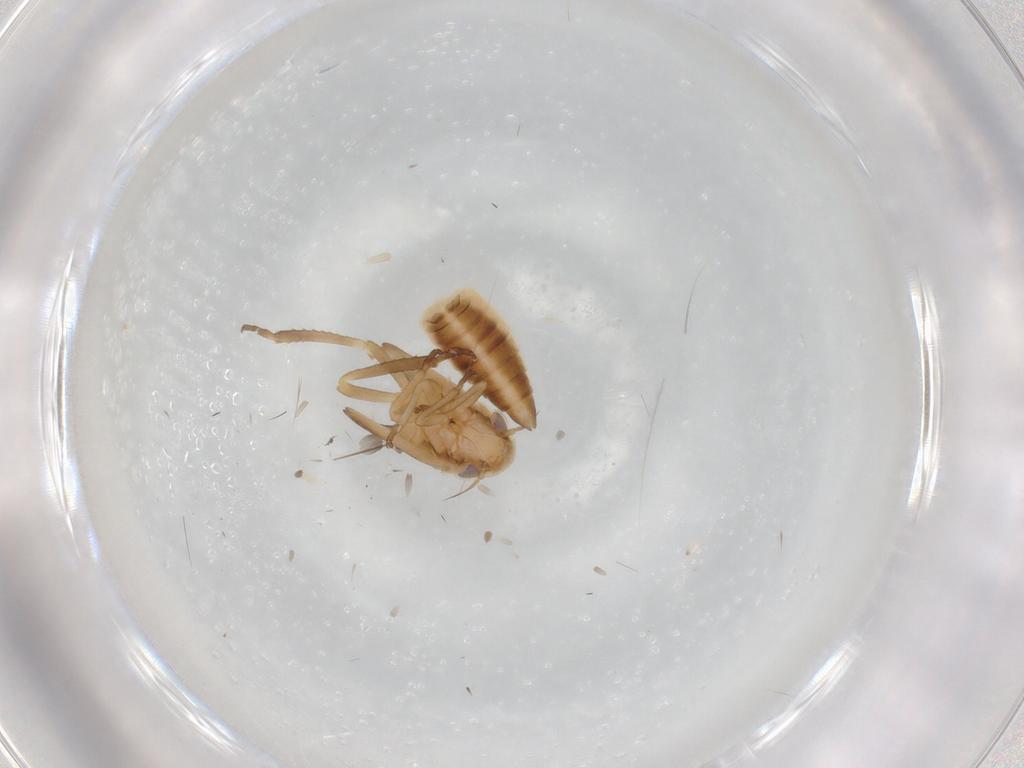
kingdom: Animalia
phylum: Arthropoda
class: Insecta
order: Hemiptera
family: Cicadellidae
